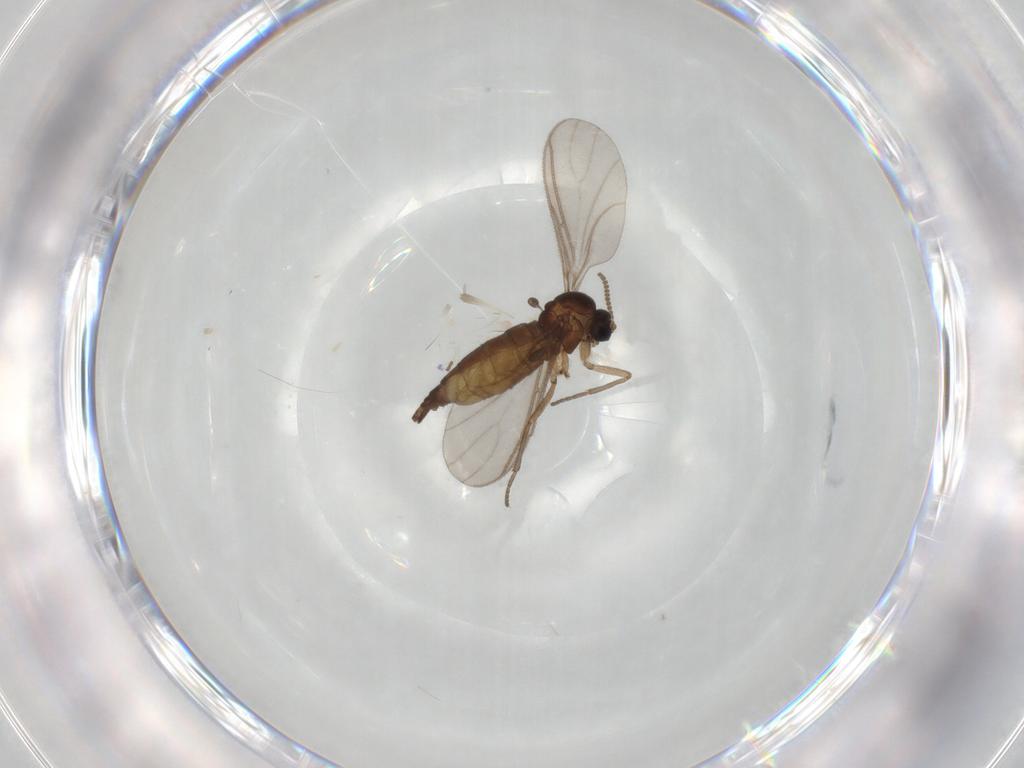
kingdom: Animalia
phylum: Arthropoda
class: Insecta
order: Diptera
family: Sciaridae
